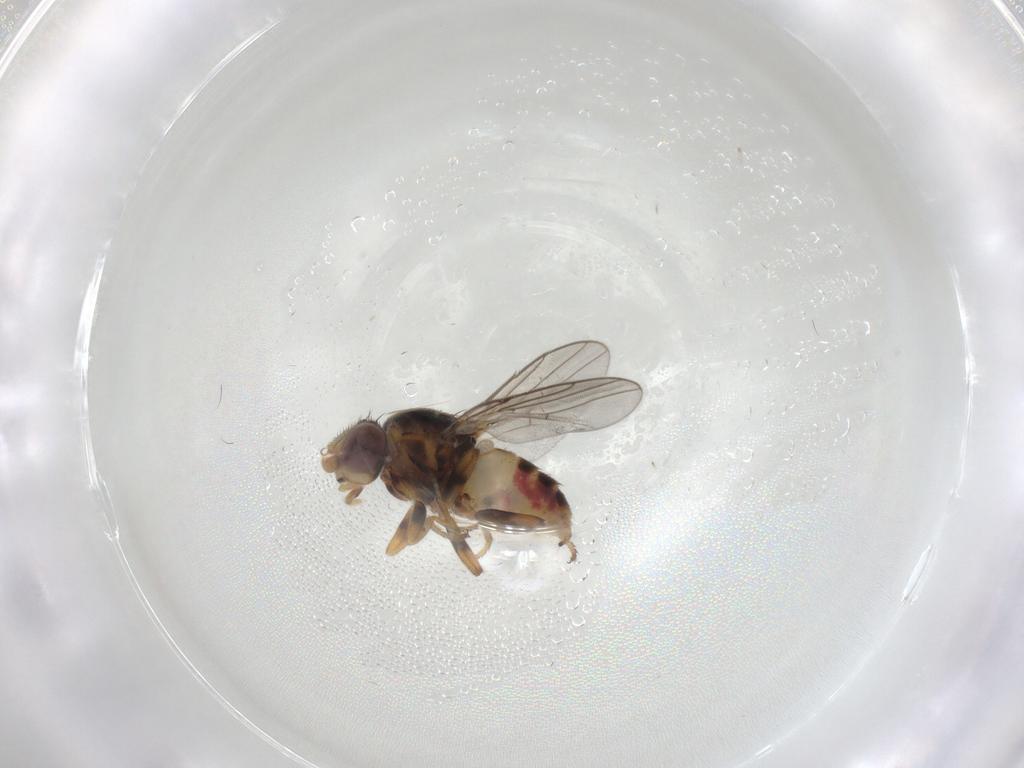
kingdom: Animalia
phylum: Arthropoda
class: Insecta
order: Diptera
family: Chloropidae
